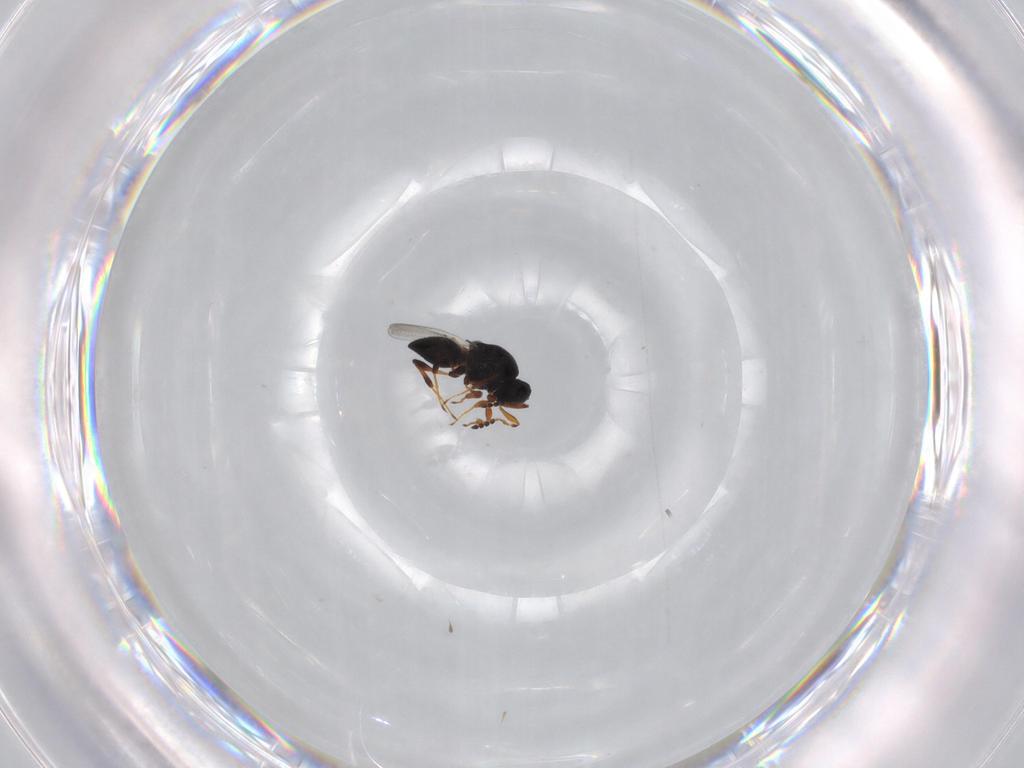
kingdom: Animalia
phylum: Arthropoda
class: Insecta
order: Hymenoptera
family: Platygastridae
